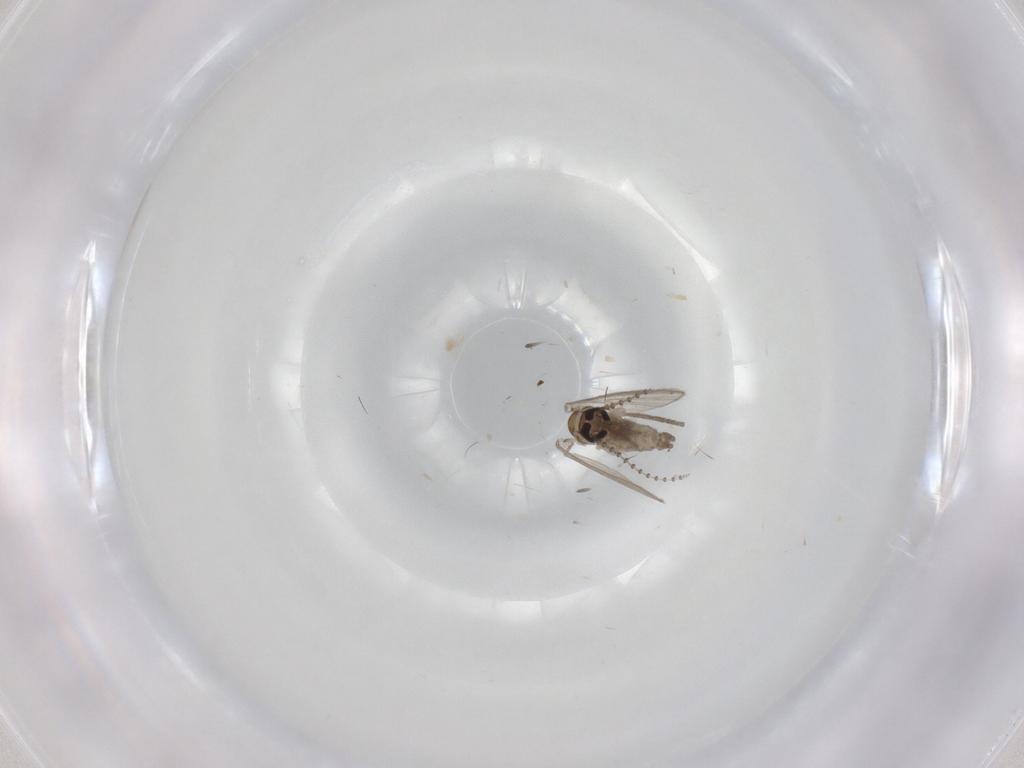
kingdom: Animalia
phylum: Arthropoda
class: Insecta
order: Diptera
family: Psychodidae
